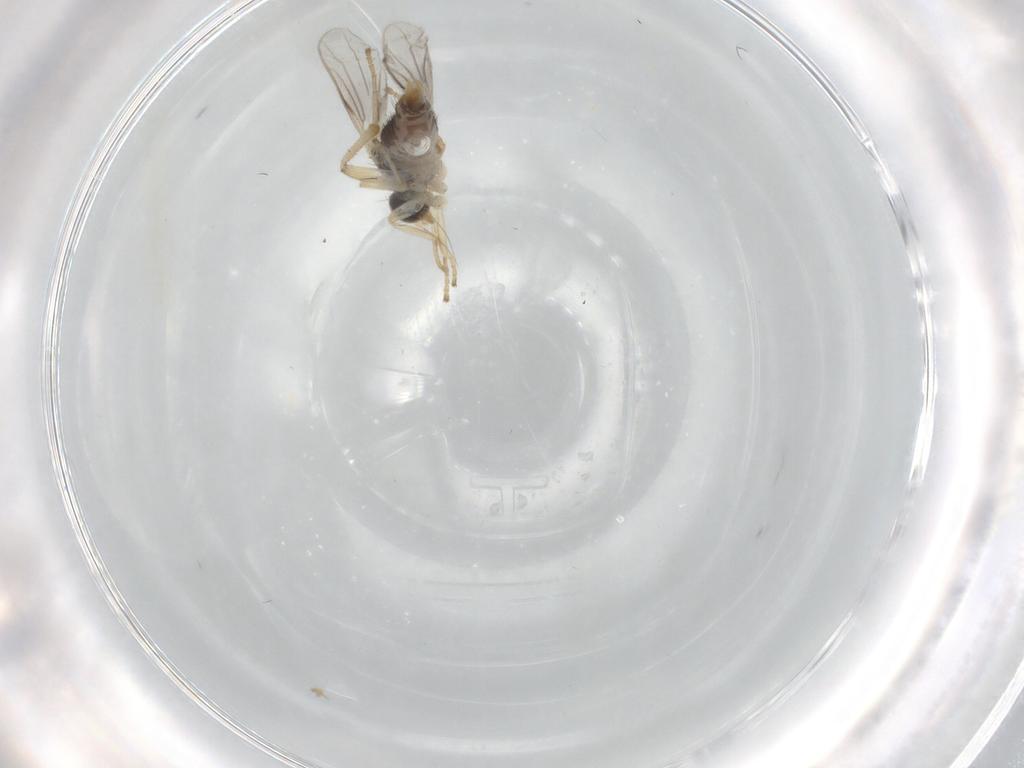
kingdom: Animalia
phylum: Arthropoda
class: Insecta
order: Diptera
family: Hybotidae
